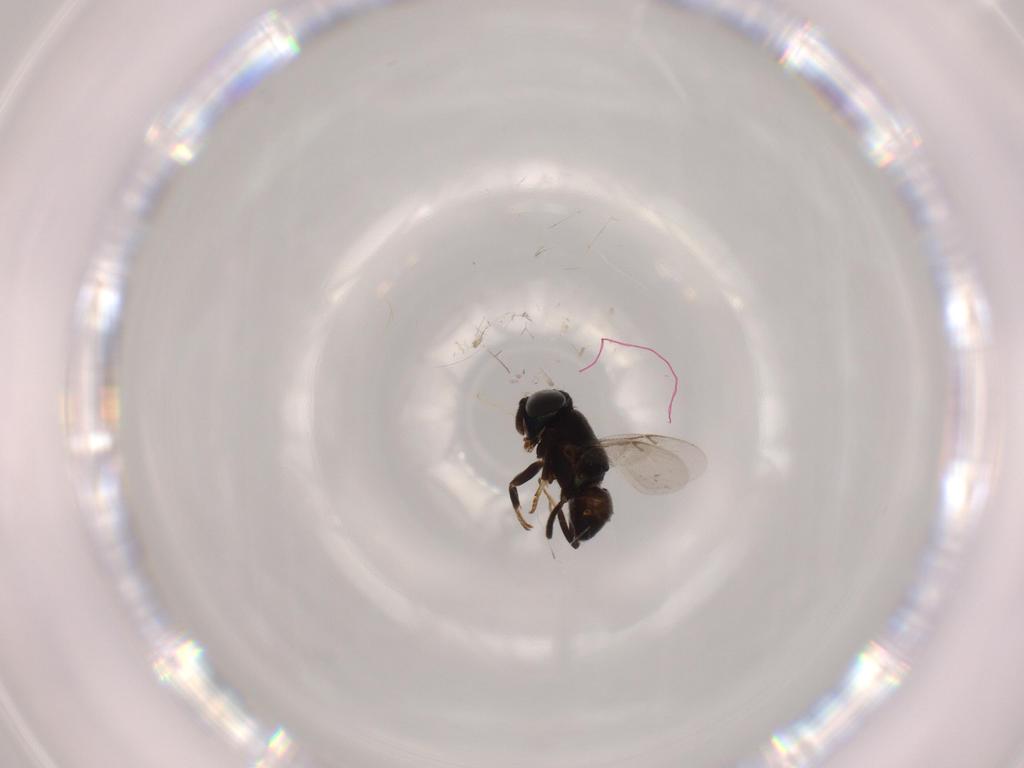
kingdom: Animalia
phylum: Arthropoda
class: Insecta
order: Hymenoptera
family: Encyrtidae
